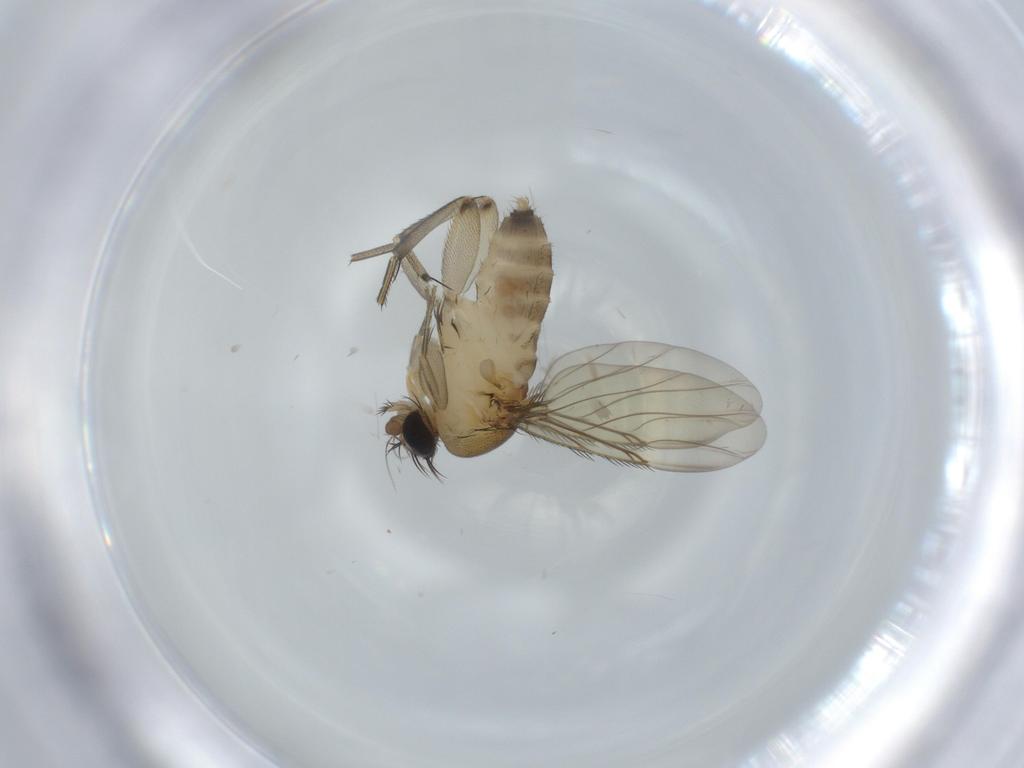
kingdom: Animalia
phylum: Arthropoda
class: Insecta
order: Diptera
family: Phoridae
